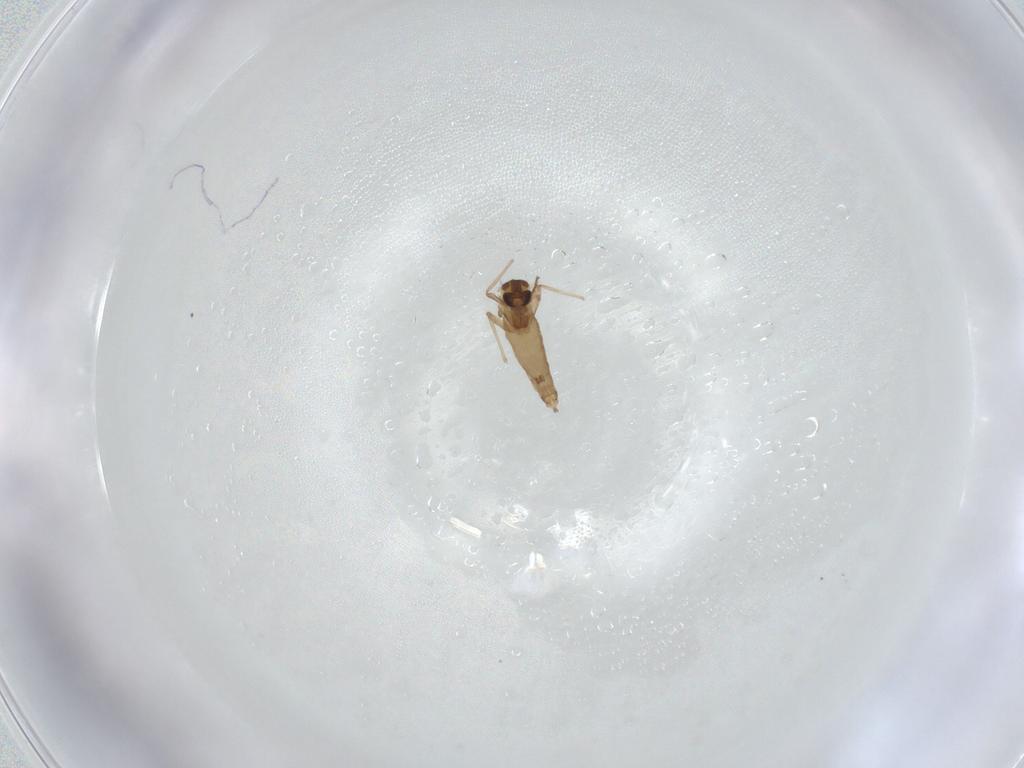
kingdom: Animalia
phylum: Arthropoda
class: Insecta
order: Diptera
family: Chironomidae
